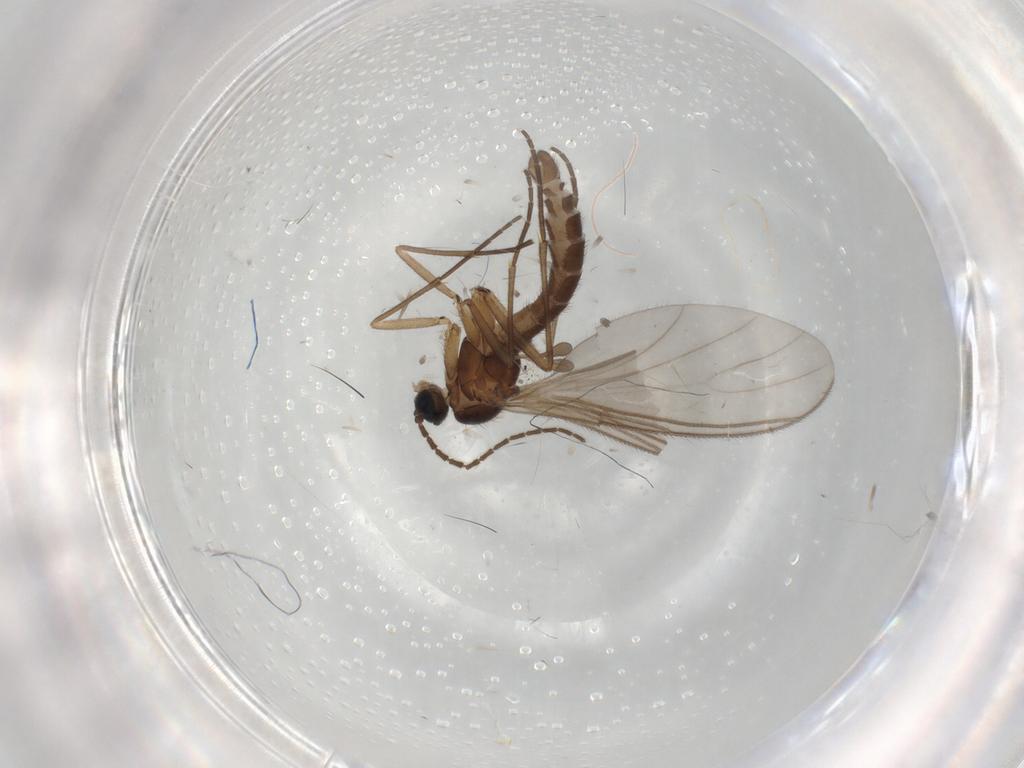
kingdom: Animalia
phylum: Arthropoda
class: Insecta
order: Diptera
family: Sciaridae
